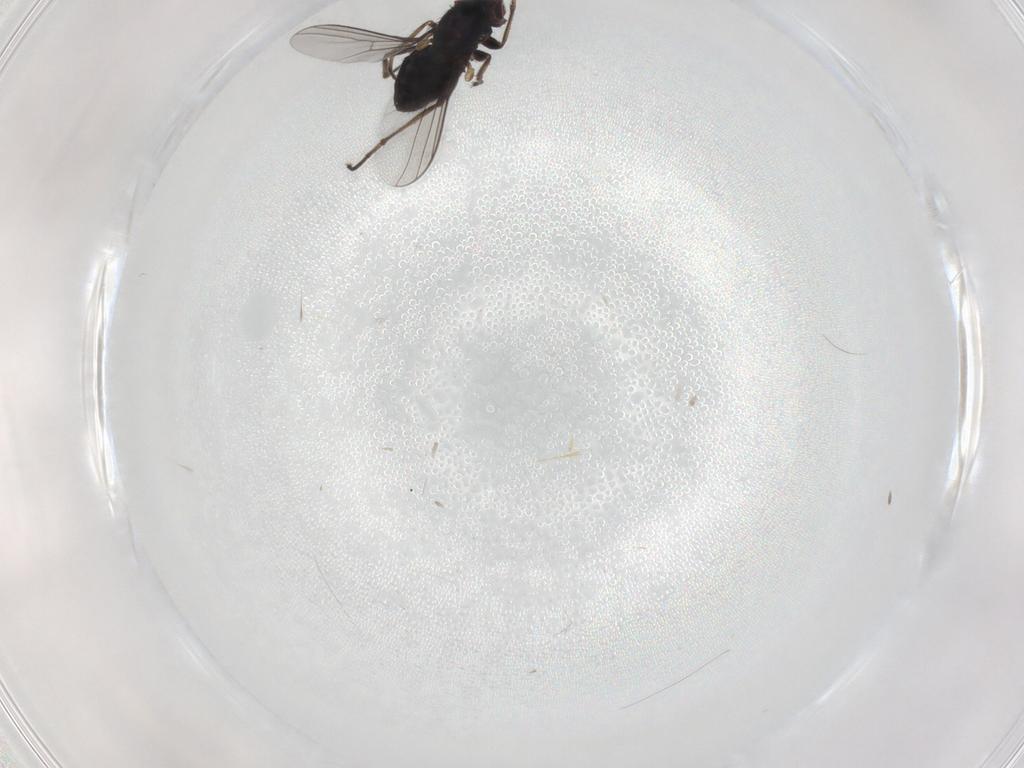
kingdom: Animalia
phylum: Arthropoda
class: Insecta
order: Diptera
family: Dolichopodidae
